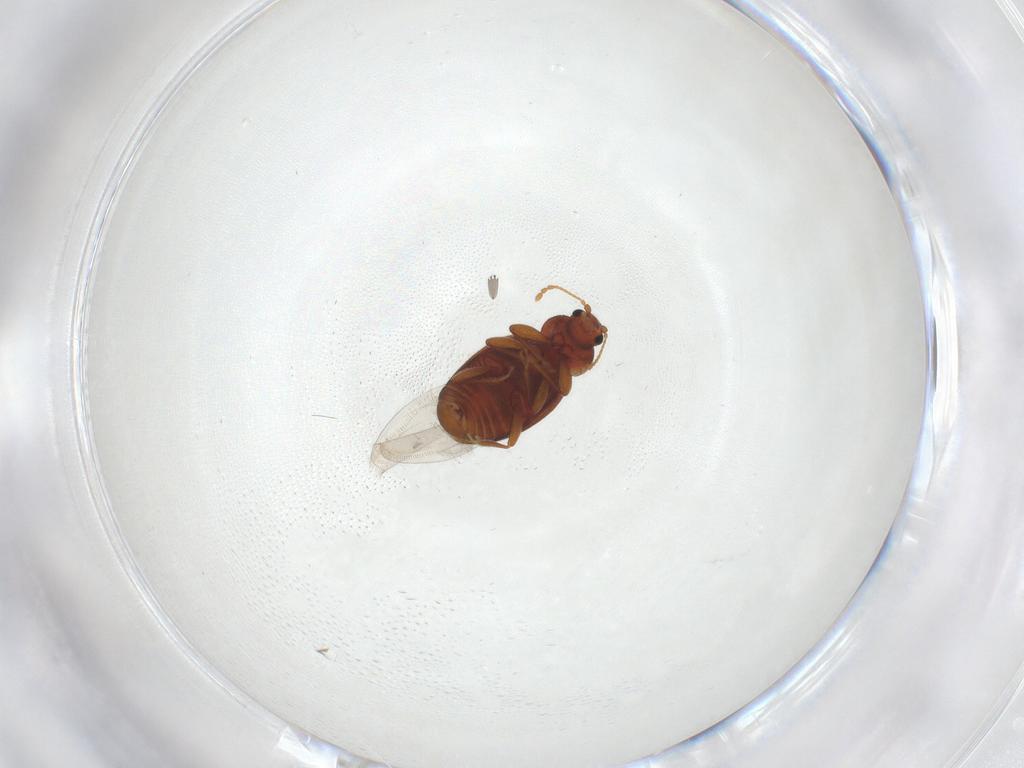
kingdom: Animalia
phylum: Arthropoda
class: Insecta
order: Coleoptera
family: Latridiidae
